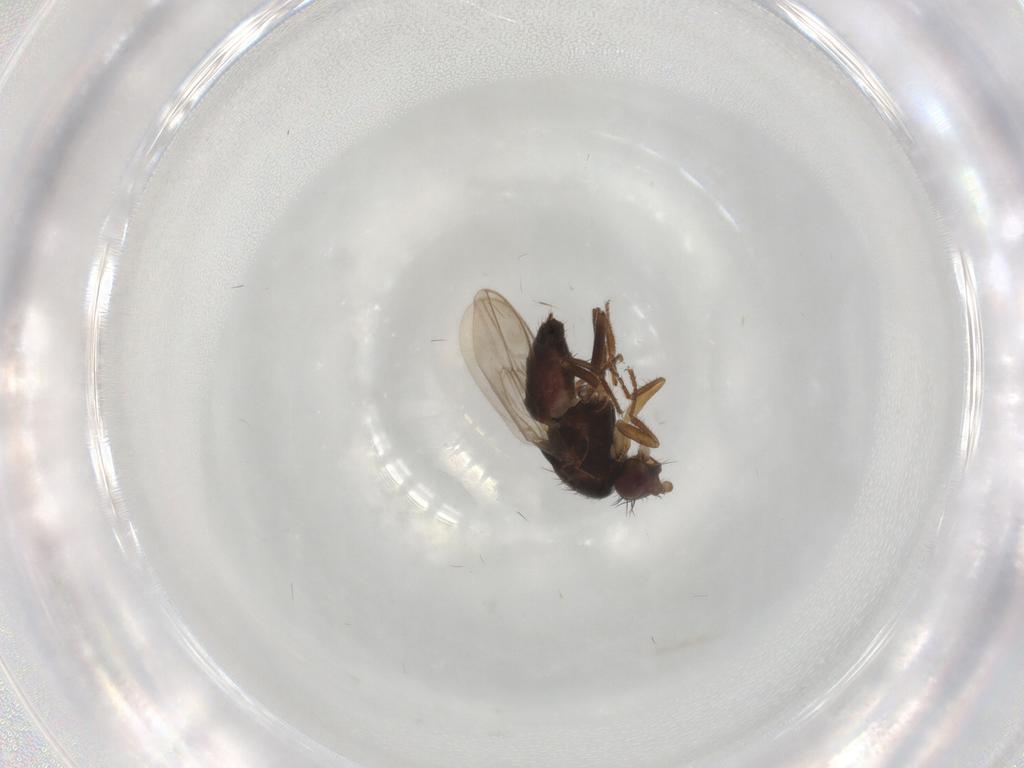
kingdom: Animalia
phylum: Arthropoda
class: Insecta
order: Diptera
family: Sphaeroceridae
